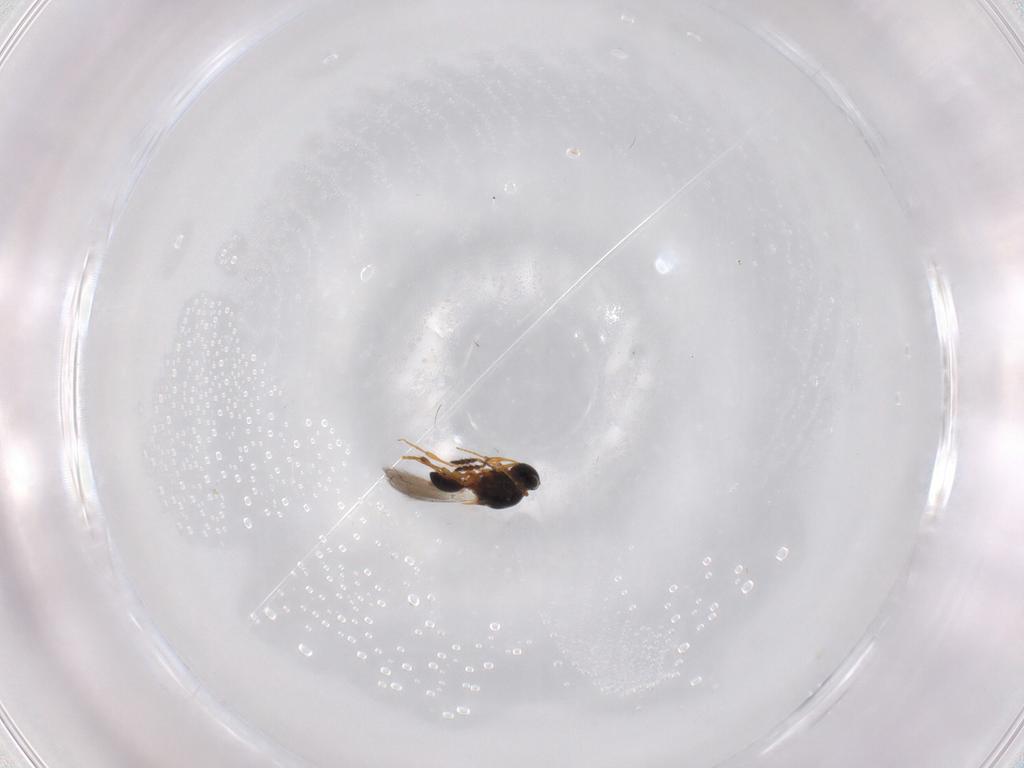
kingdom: Animalia
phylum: Arthropoda
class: Insecta
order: Hymenoptera
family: Platygastridae
